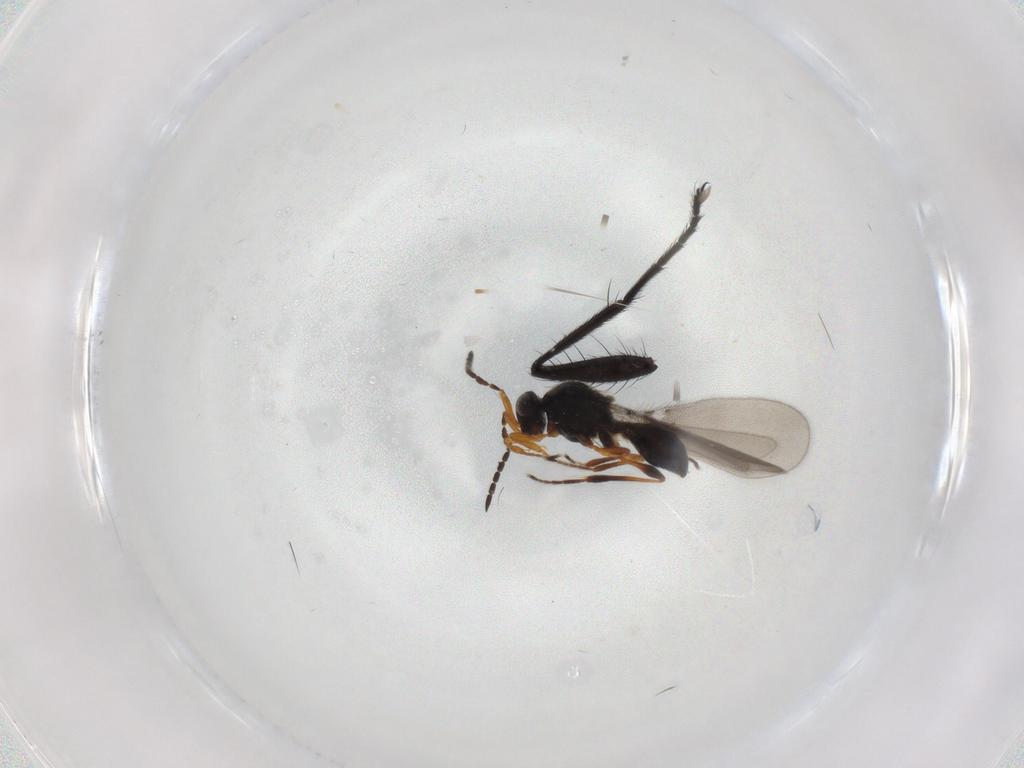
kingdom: Animalia
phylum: Arthropoda
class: Insecta
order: Hymenoptera
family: Platygastridae
